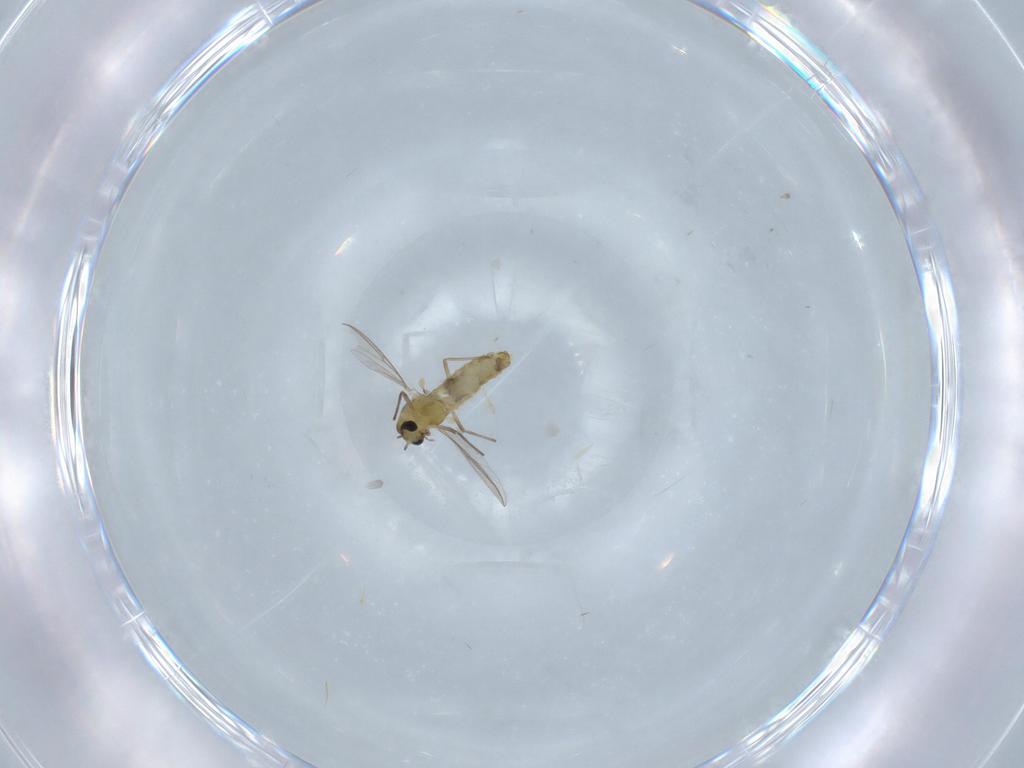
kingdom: Animalia
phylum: Arthropoda
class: Insecta
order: Diptera
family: Chironomidae
